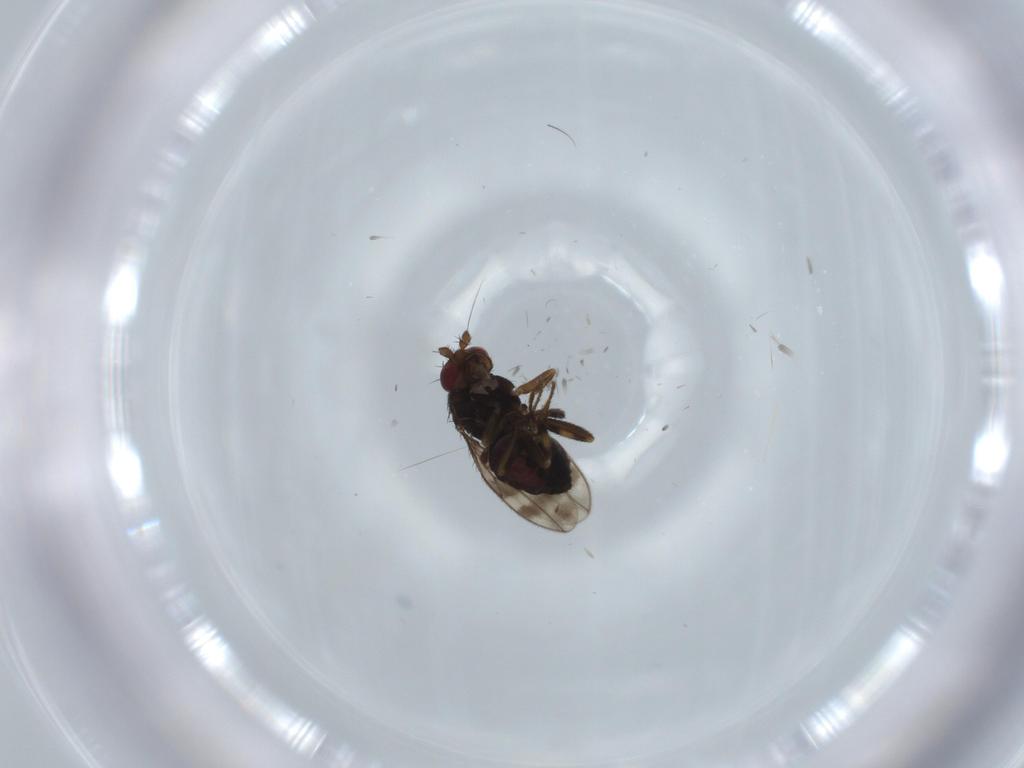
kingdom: Animalia
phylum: Arthropoda
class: Insecta
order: Diptera
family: Sphaeroceridae
